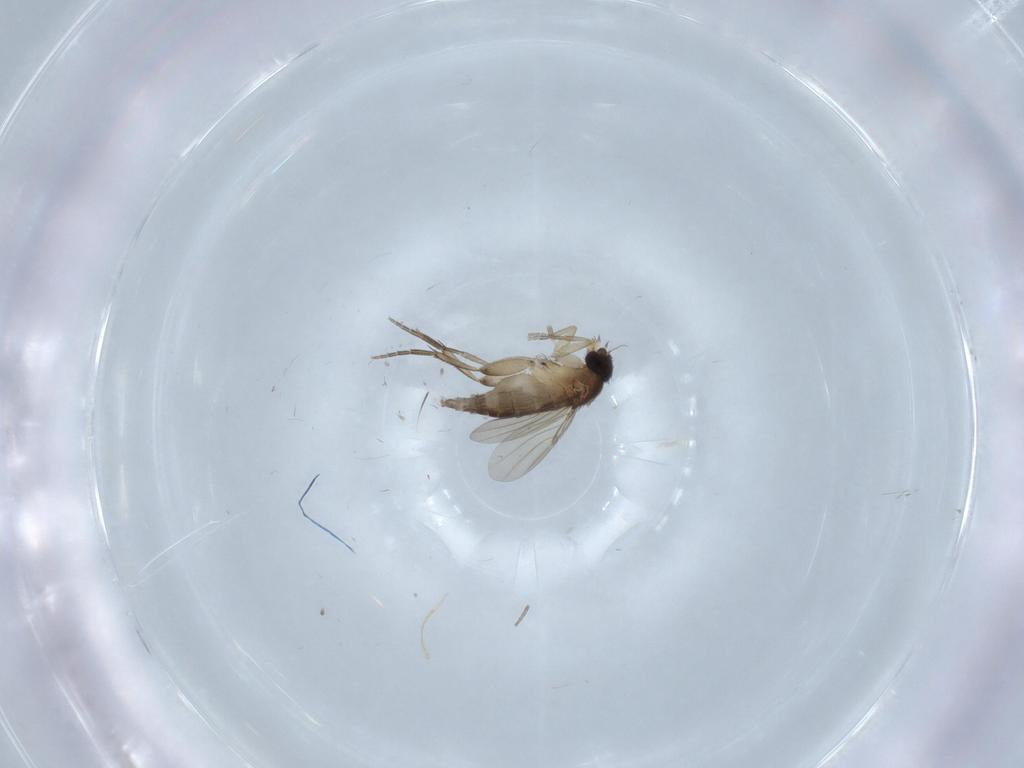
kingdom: Animalia
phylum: Arthropoda
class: Insecta
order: Diptera
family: Phoridae
